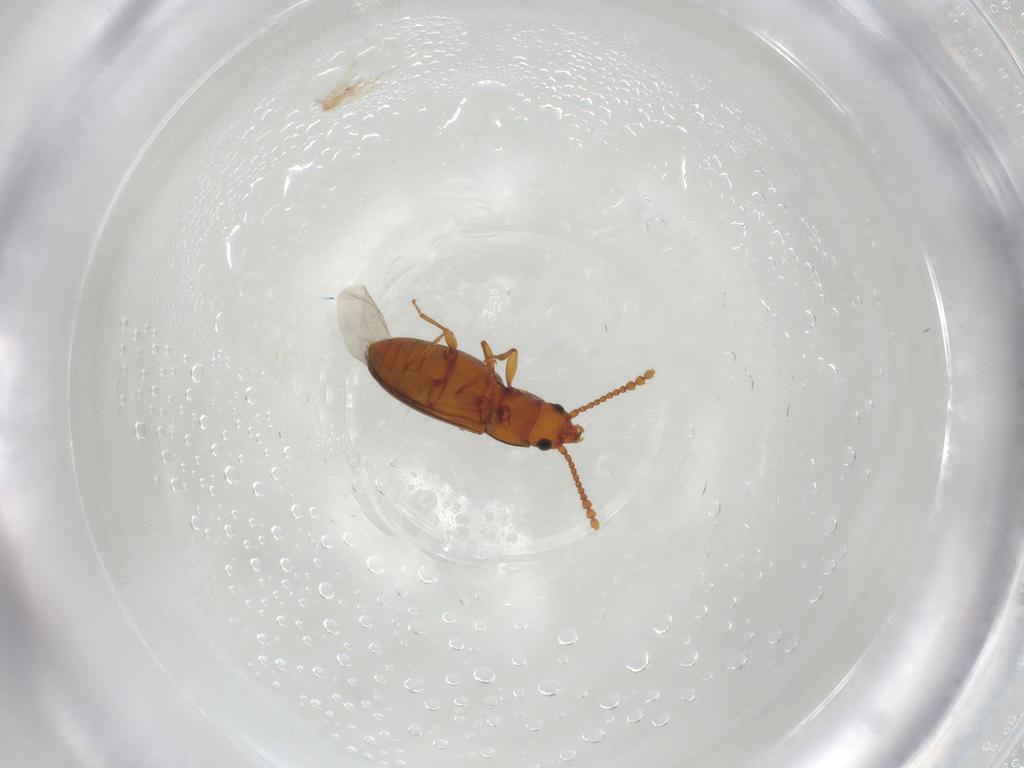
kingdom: Animalia
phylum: Arthropoda
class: Insecta
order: Coleoptera
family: Laemophloeidae
